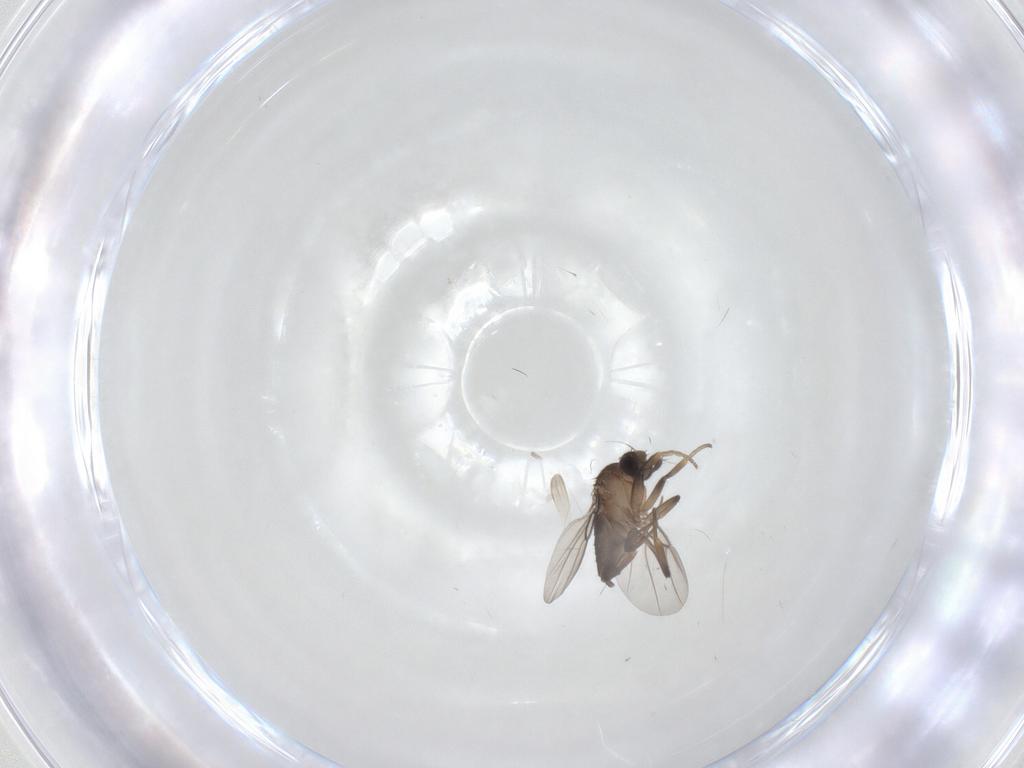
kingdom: Animalia
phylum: Arthropoda
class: Insecta
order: Diptera
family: Phoridae
